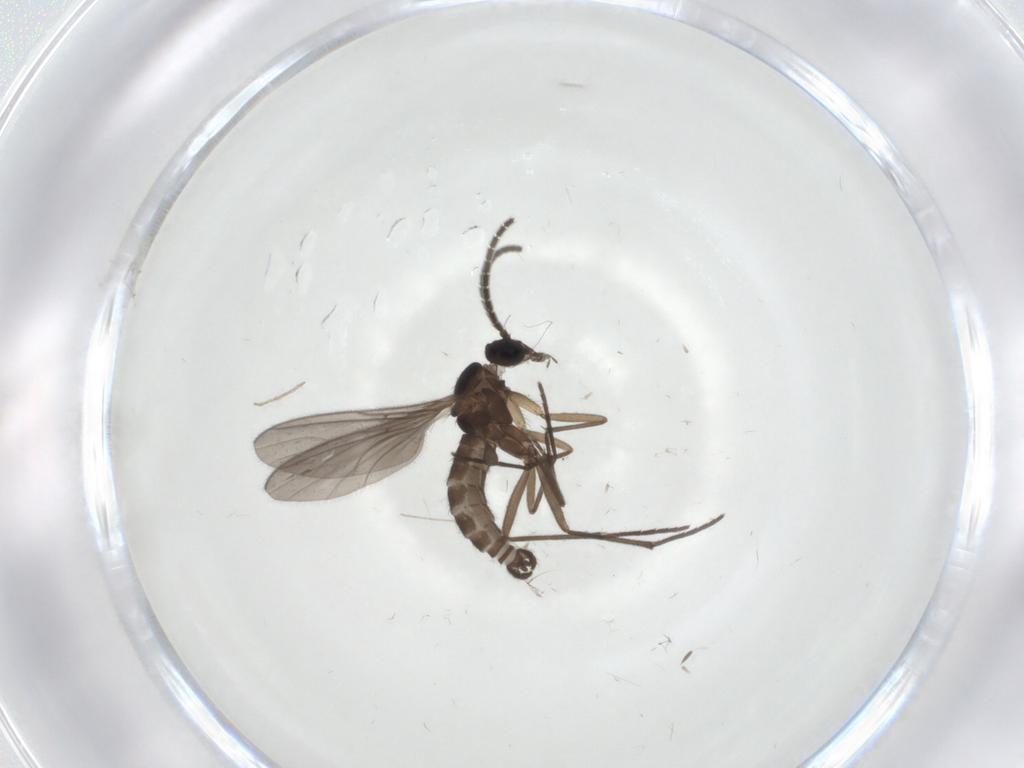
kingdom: Animalia
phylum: Arthropoda
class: Insecta
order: Diptera
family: Sciaridae
